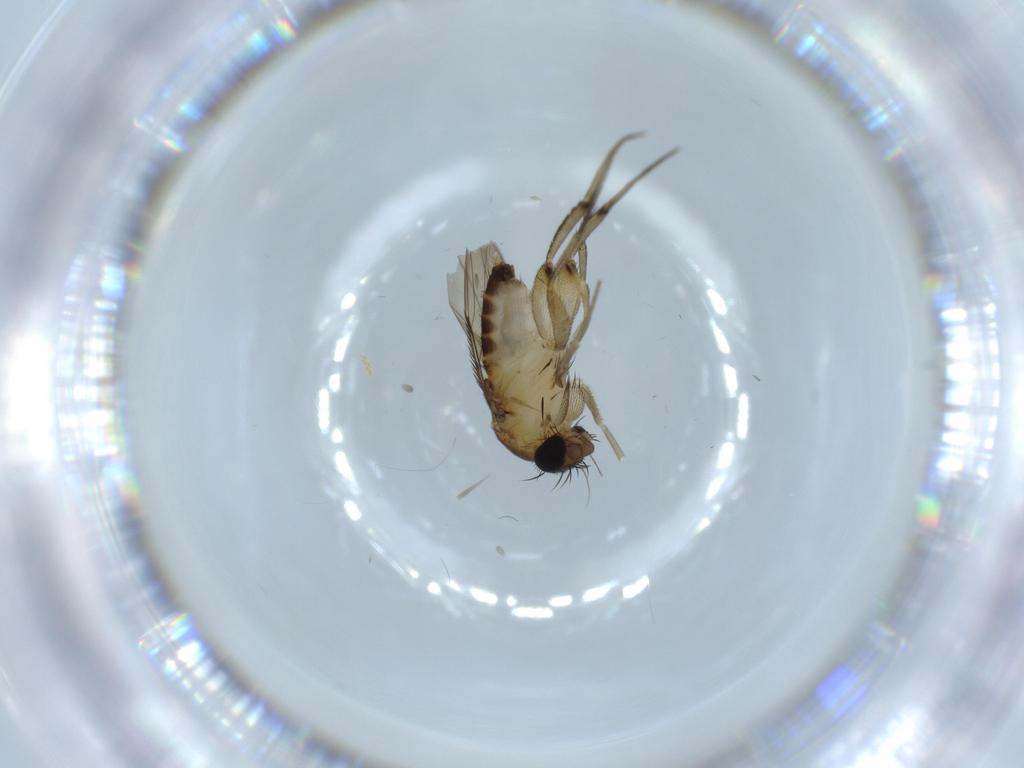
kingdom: Animalia
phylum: Arthropoda
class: Insecta
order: Diptera
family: Phoridae
